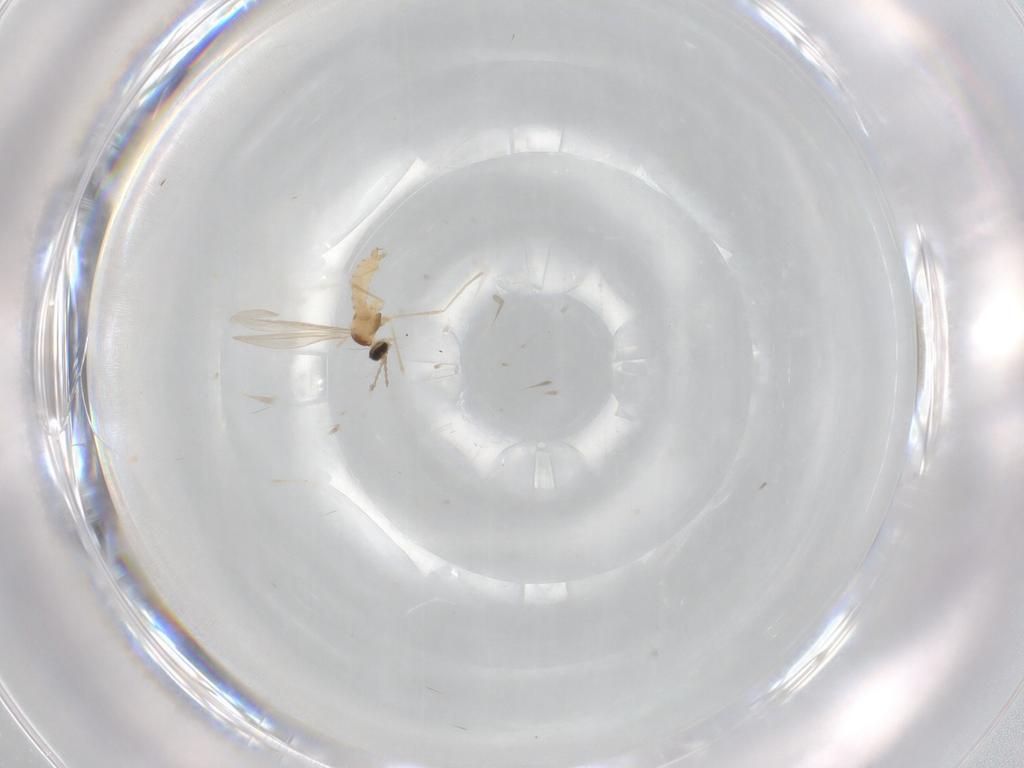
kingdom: Animalia
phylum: Arthropoda
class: Insecta
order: Diptera
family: Cecidomyiidae
